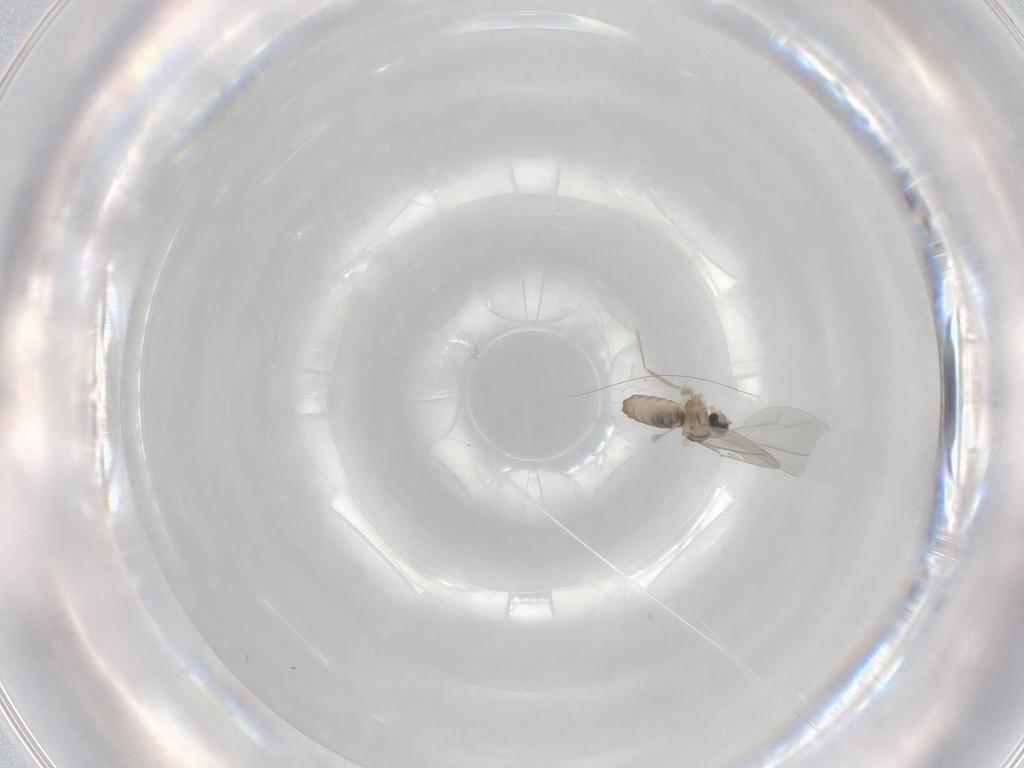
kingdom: Animalia
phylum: Arthropoda
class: Insecta
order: Diptera
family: Cecidomyiidae
